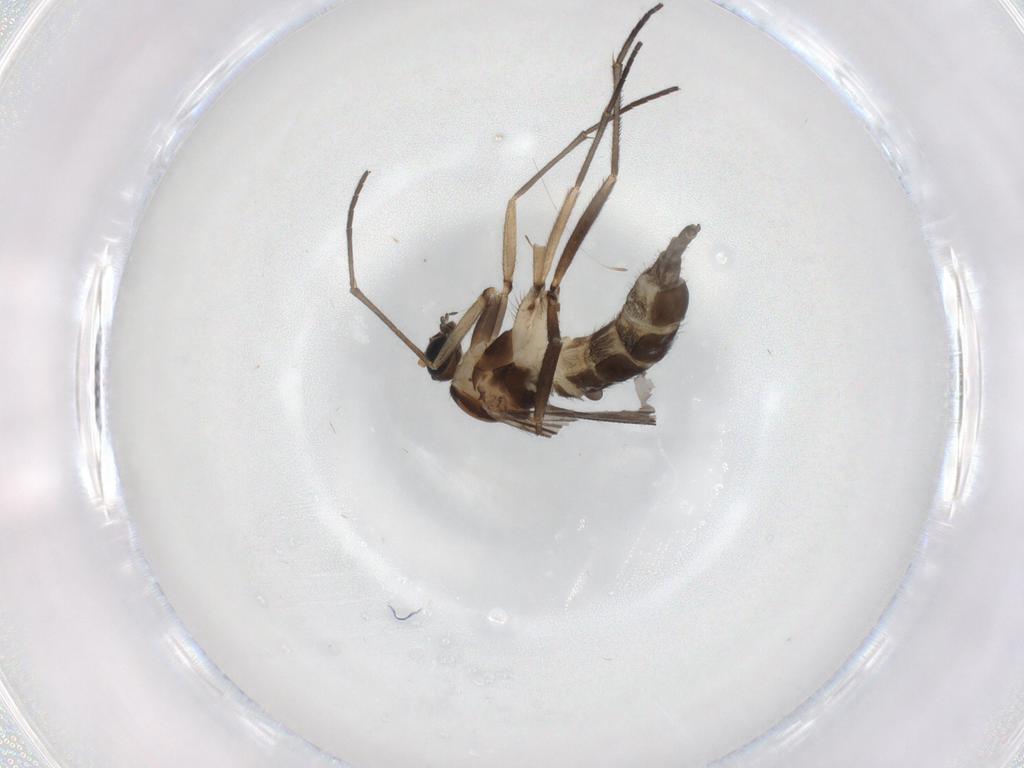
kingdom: Animalia
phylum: Arthropoda
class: Insecta
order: Diptera
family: Sciaridae
